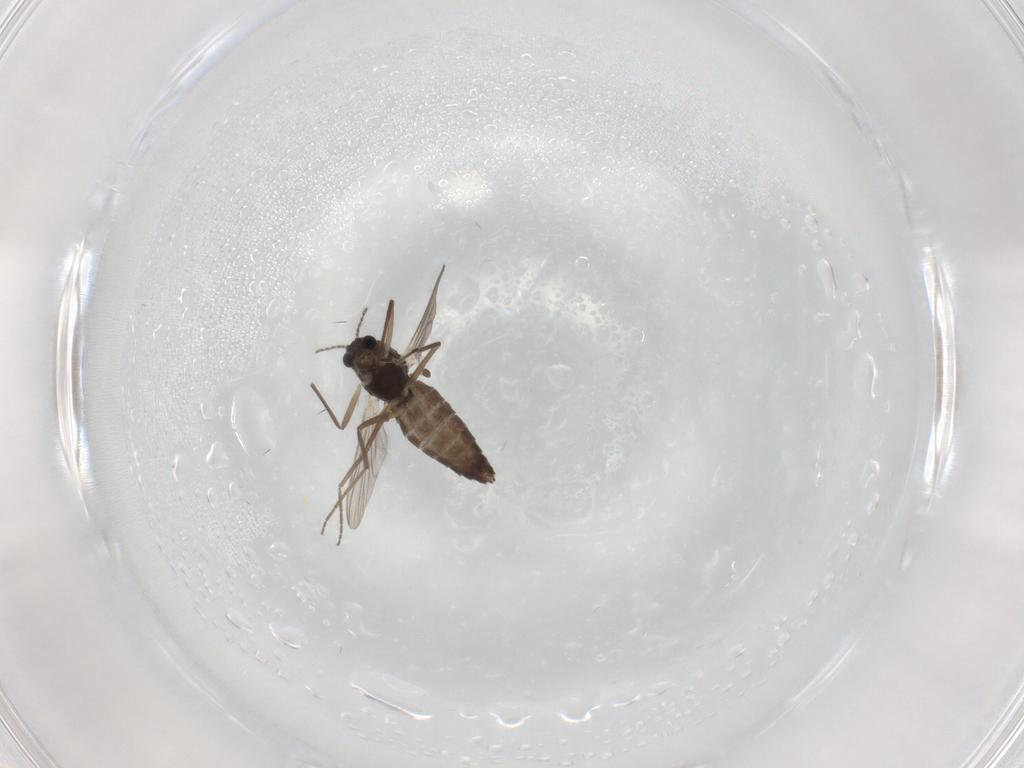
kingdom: Animalia
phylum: Arthropoda
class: Insecta
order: Diptera
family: Chironomidae
